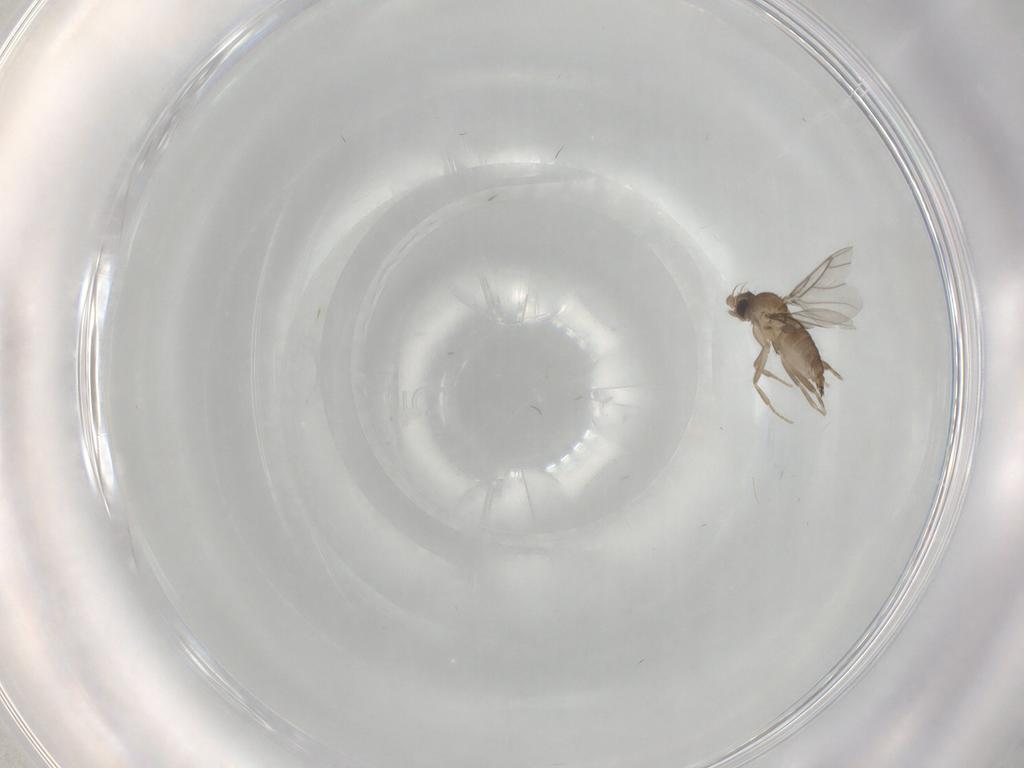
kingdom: Animalia
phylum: Arthropoda
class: Insecta
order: Diptera
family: Cecidomyiidae
